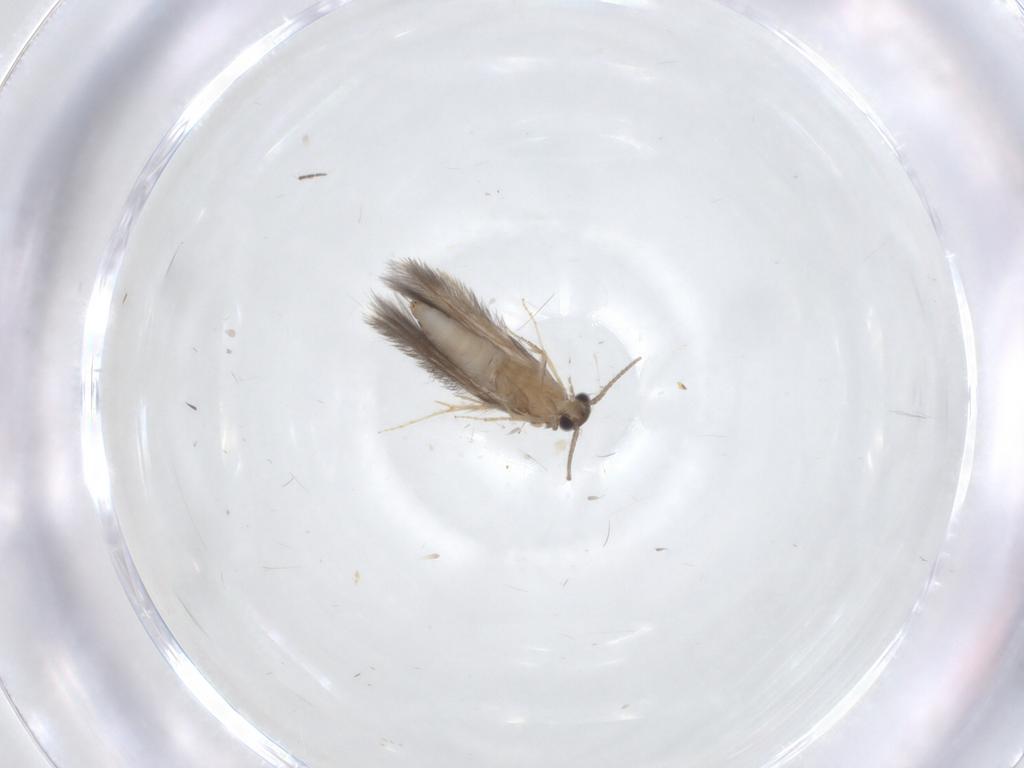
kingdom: Animalia
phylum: Arthropoda
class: Insecta
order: Trichoptera
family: Hydroptilidae
